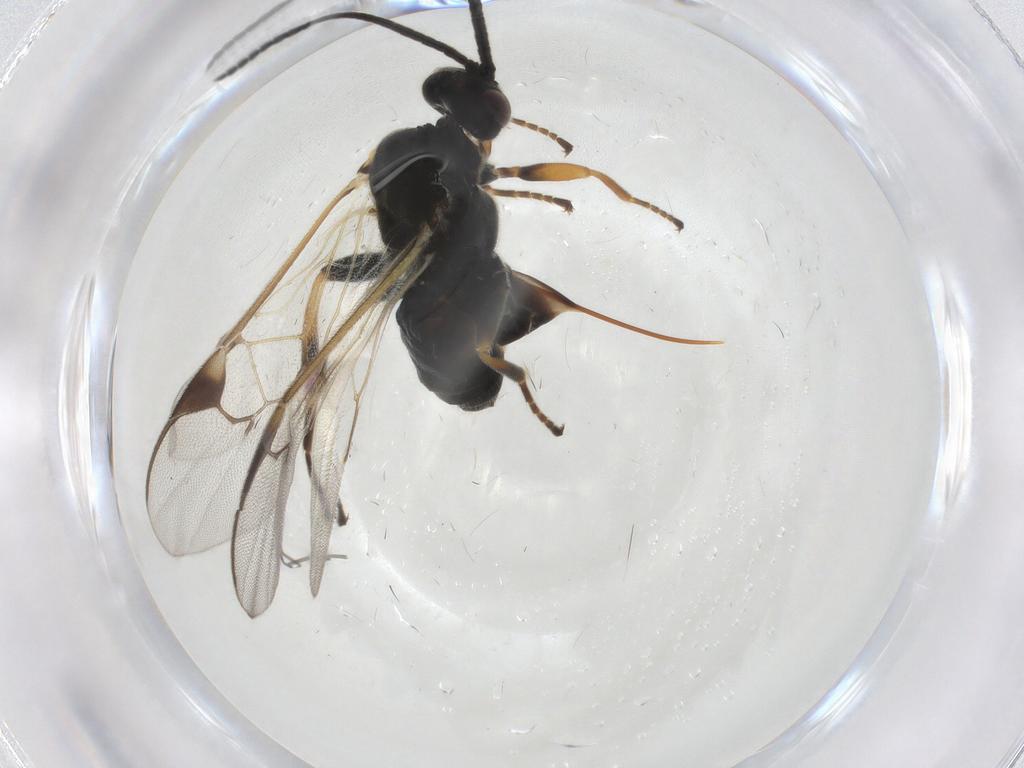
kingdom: Animalia
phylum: Arthropoda
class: Insecta
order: Hymenoptera
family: Braconidae
